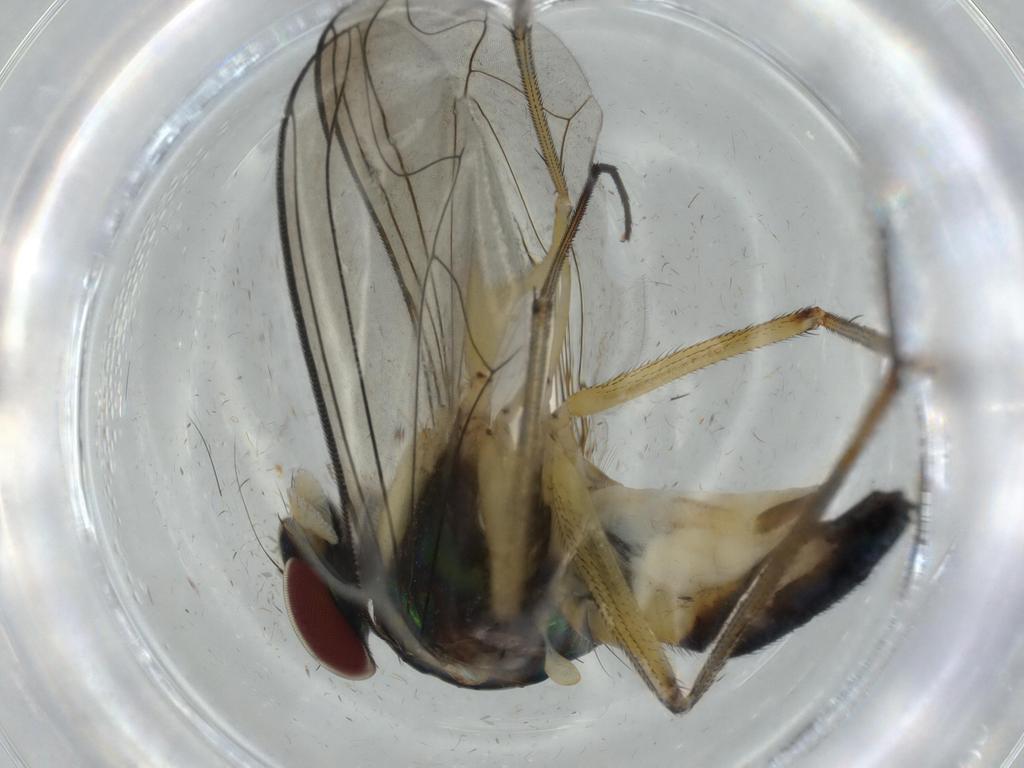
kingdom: Animalia
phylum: Arthropoda
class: Insecta
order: Diptera
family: Dolichopodidae
